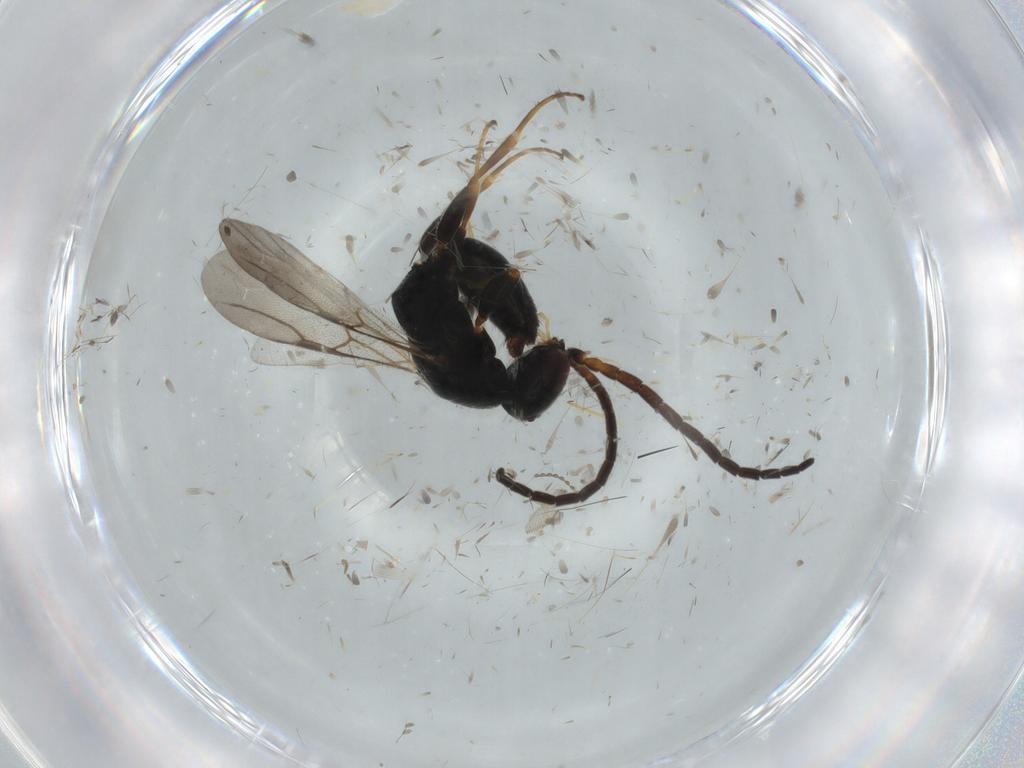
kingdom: Animalia
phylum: Arthropoda
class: Insecta
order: Hymenoptera
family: Bethylidae
